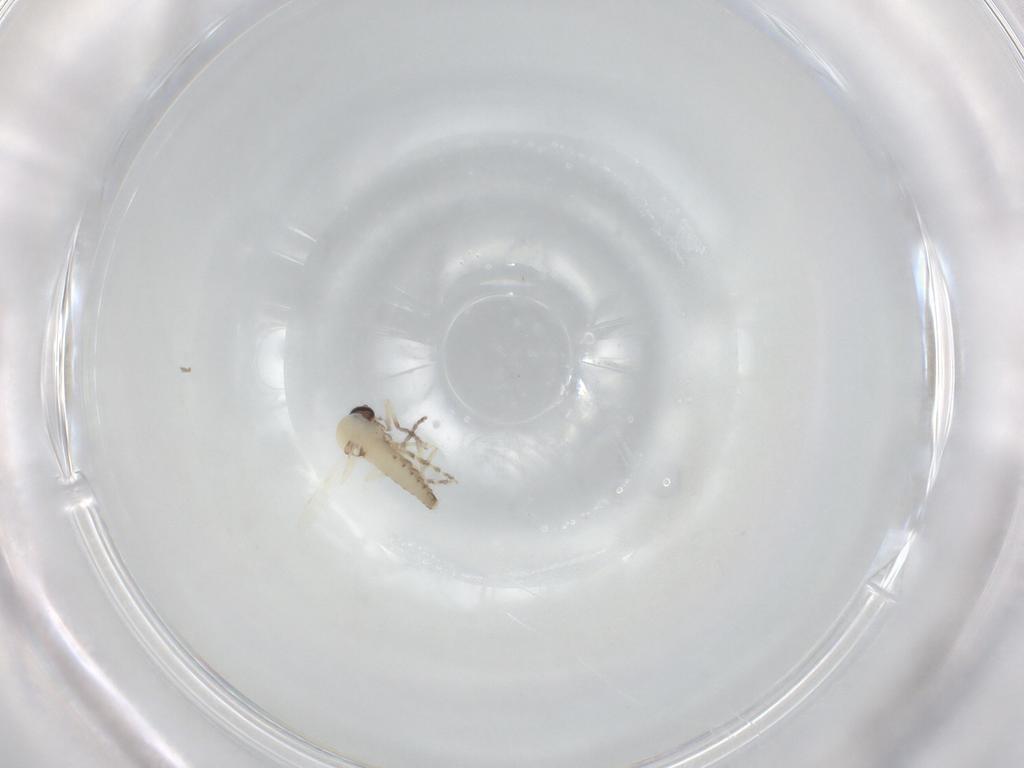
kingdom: Animalia
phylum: Arthropoda
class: Insecta
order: Diptera
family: Ceratopogonidae
